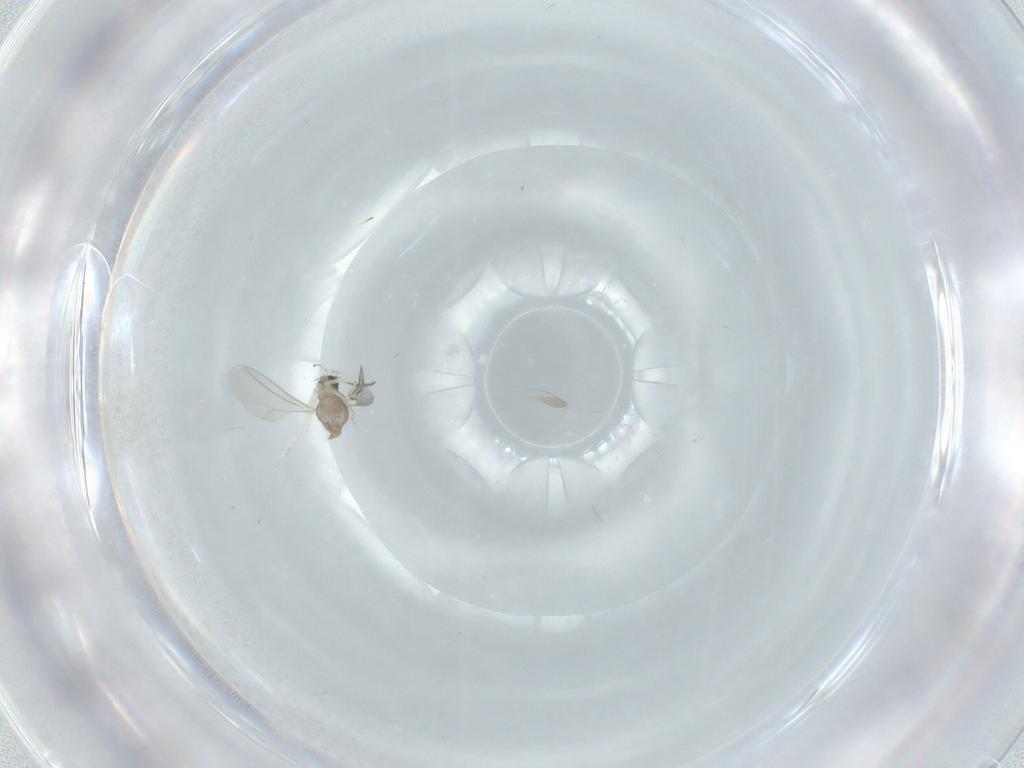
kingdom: Animalia
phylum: Arthropoda
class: Insecta
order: Diptera
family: Cecidomyiidae
